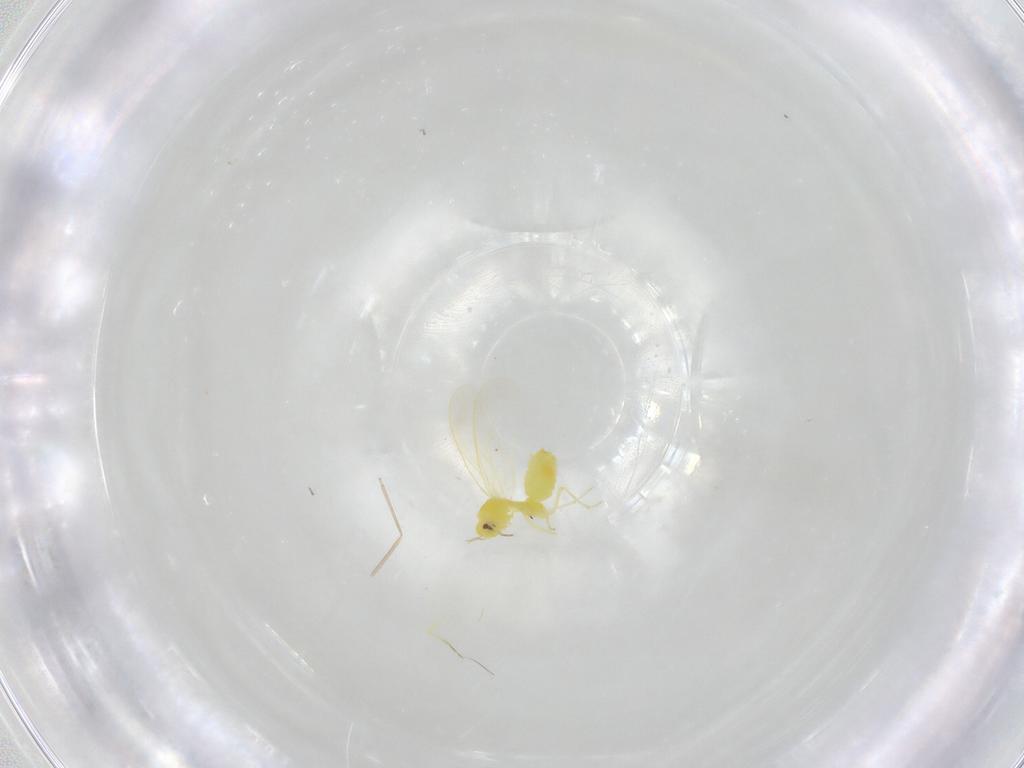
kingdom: Animalia
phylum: Arthropoda
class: Insecta
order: Hemiptera
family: Aleyrodidae
